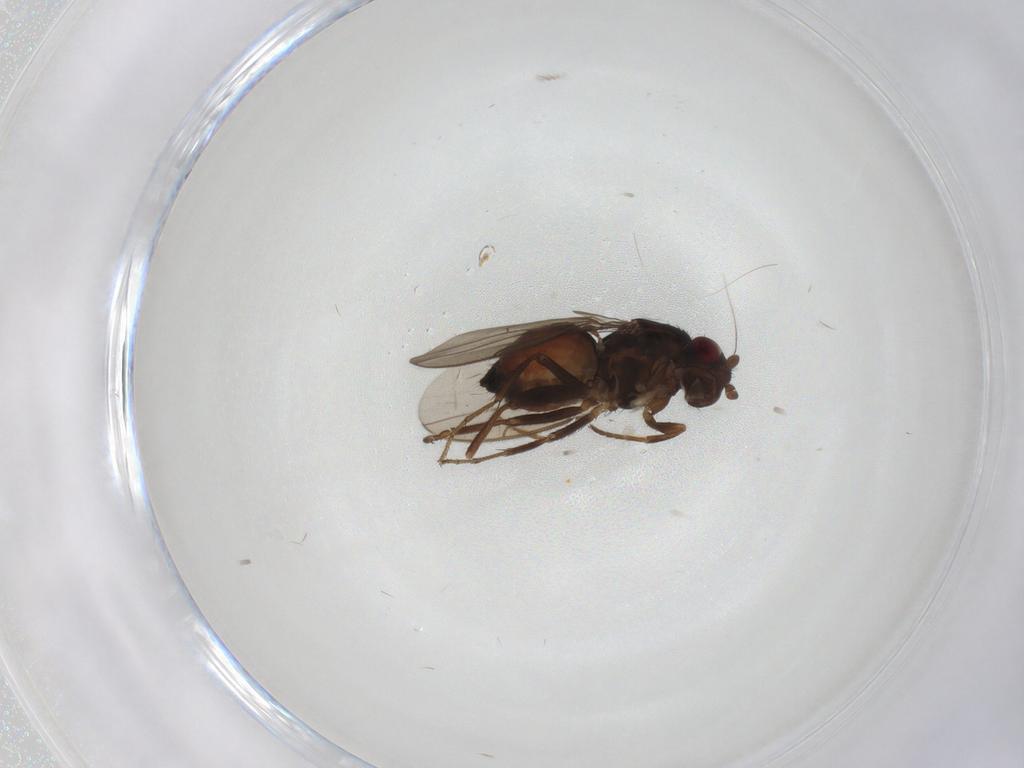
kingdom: Animalia
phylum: Arthropoda
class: Insecta
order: Diptera
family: Sphaeroceridae
